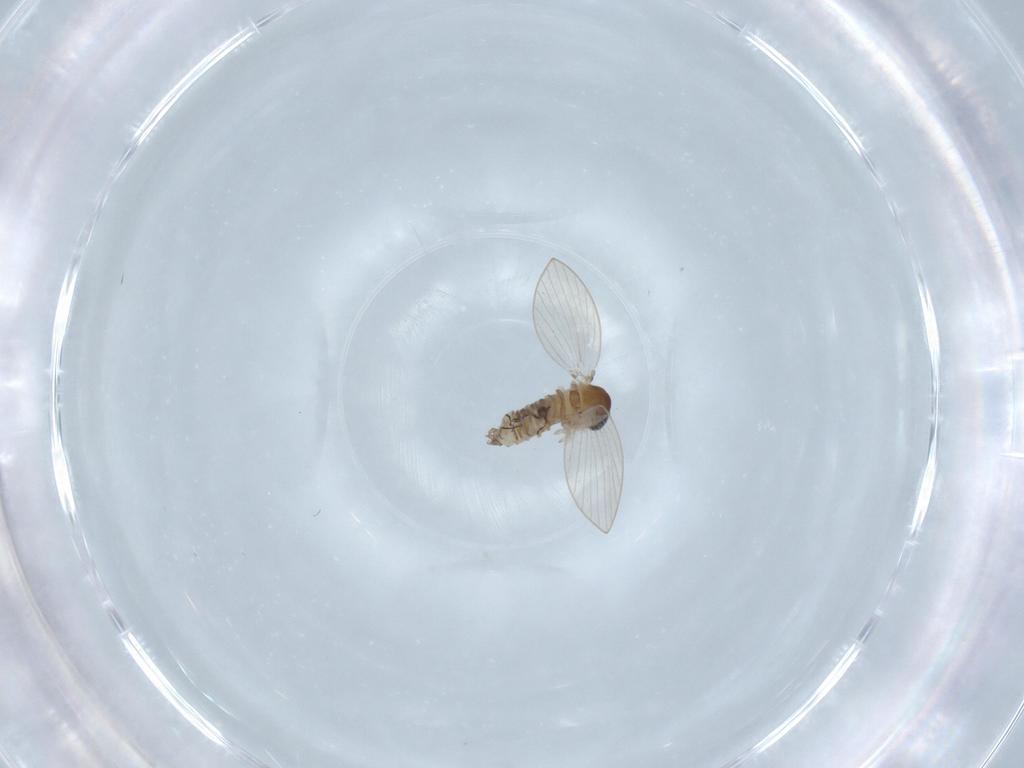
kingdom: Animalia
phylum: Arthropoda
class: Insecta
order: Diptera
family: Psychodidae
